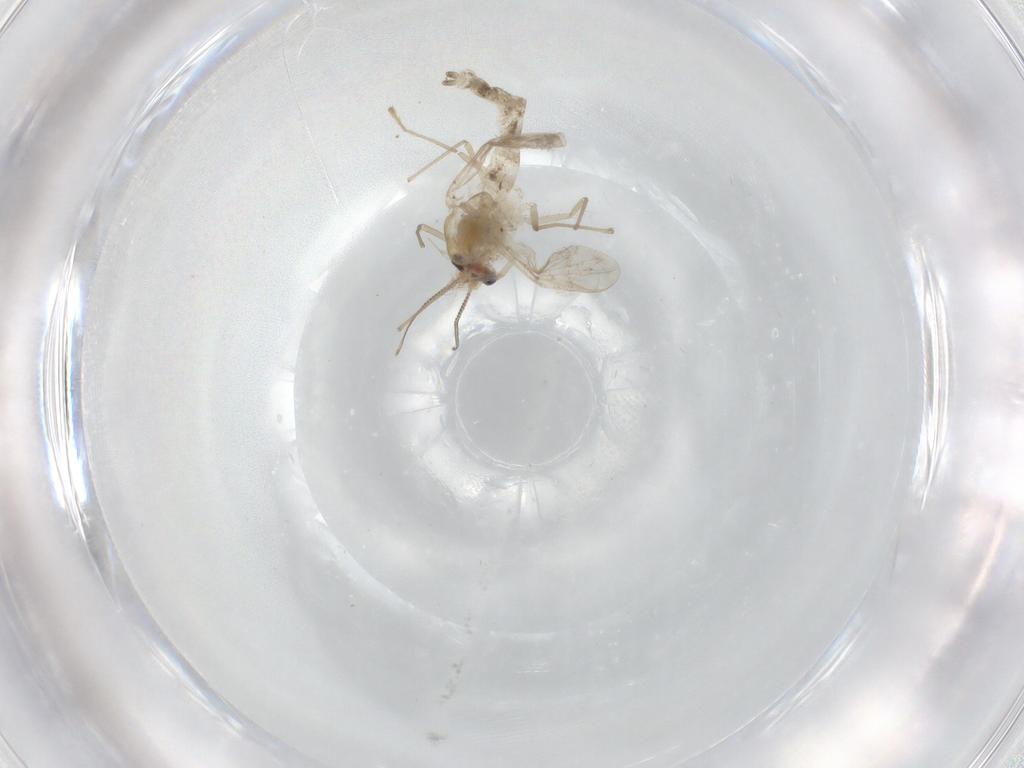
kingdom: Animalia
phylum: Arthropoda
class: Insecta
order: Diptera
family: Chironomidae
